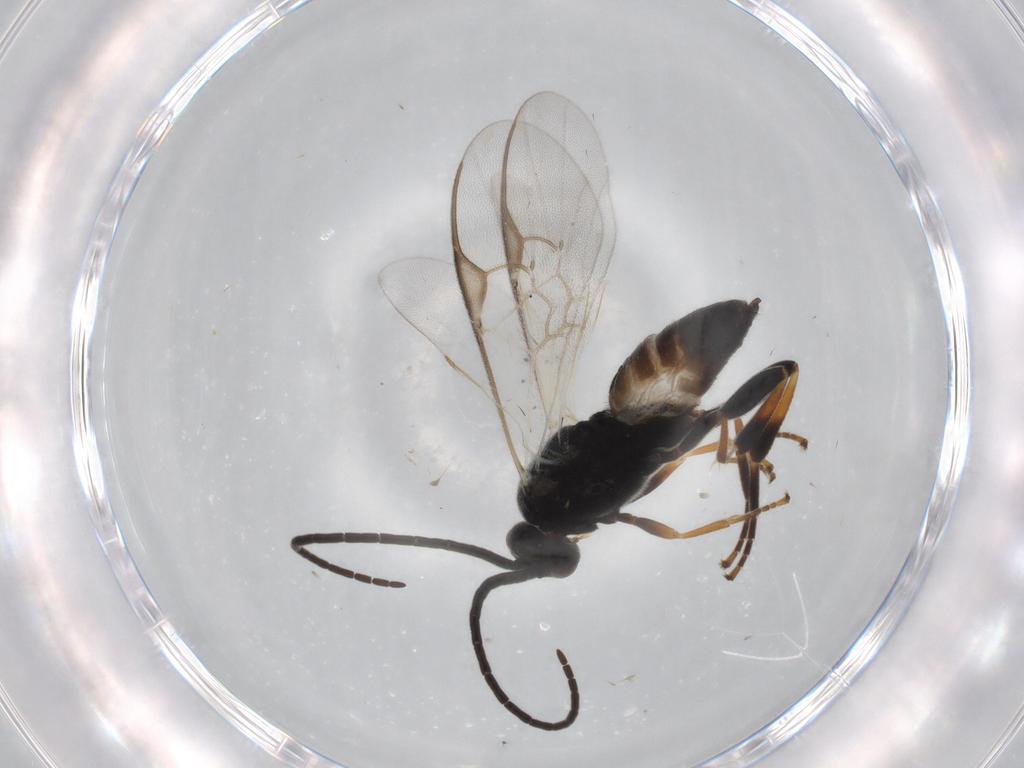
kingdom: Animalia
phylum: Arthropoda
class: Insecta
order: Hymenoptera
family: Braconidae
